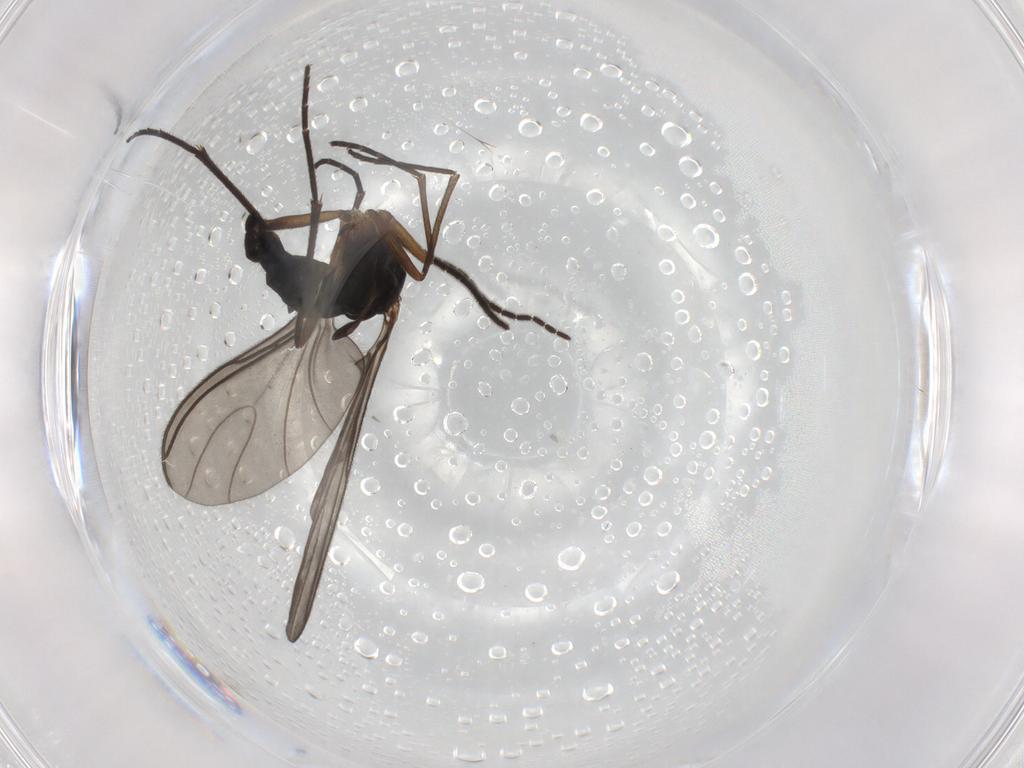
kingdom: Animalia
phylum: Arthropoda
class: Insecta
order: Diptera
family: Sciaridae
